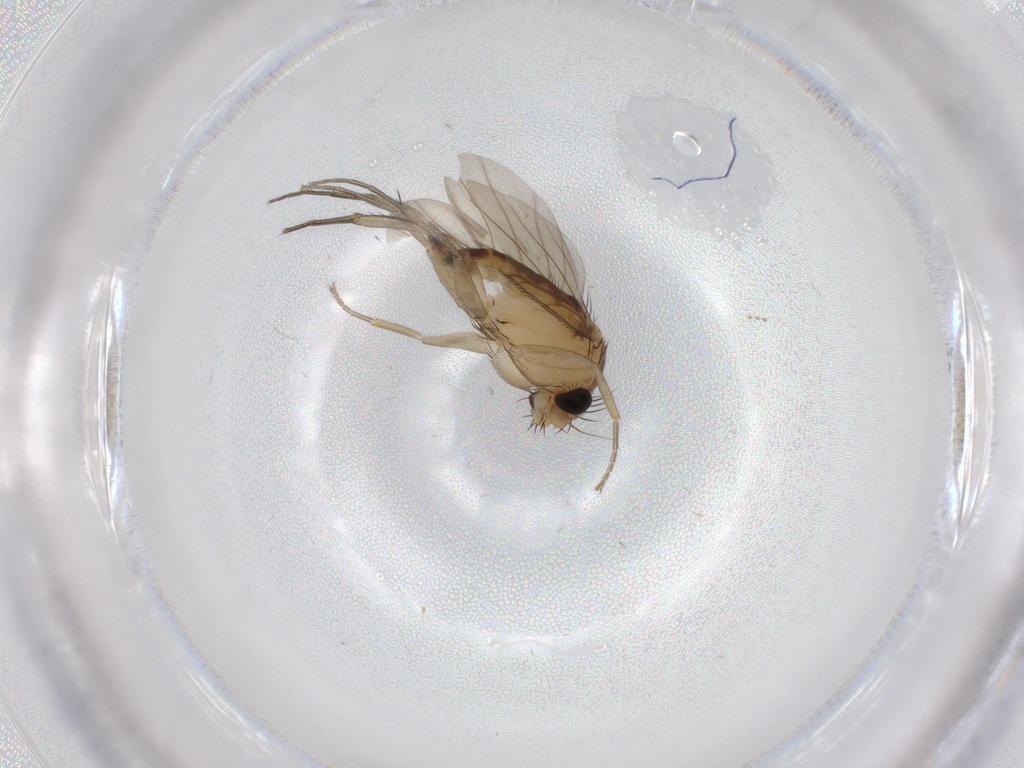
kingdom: Animalia
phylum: Arthropoda
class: Insecta
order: Diptera
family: Phoridae
